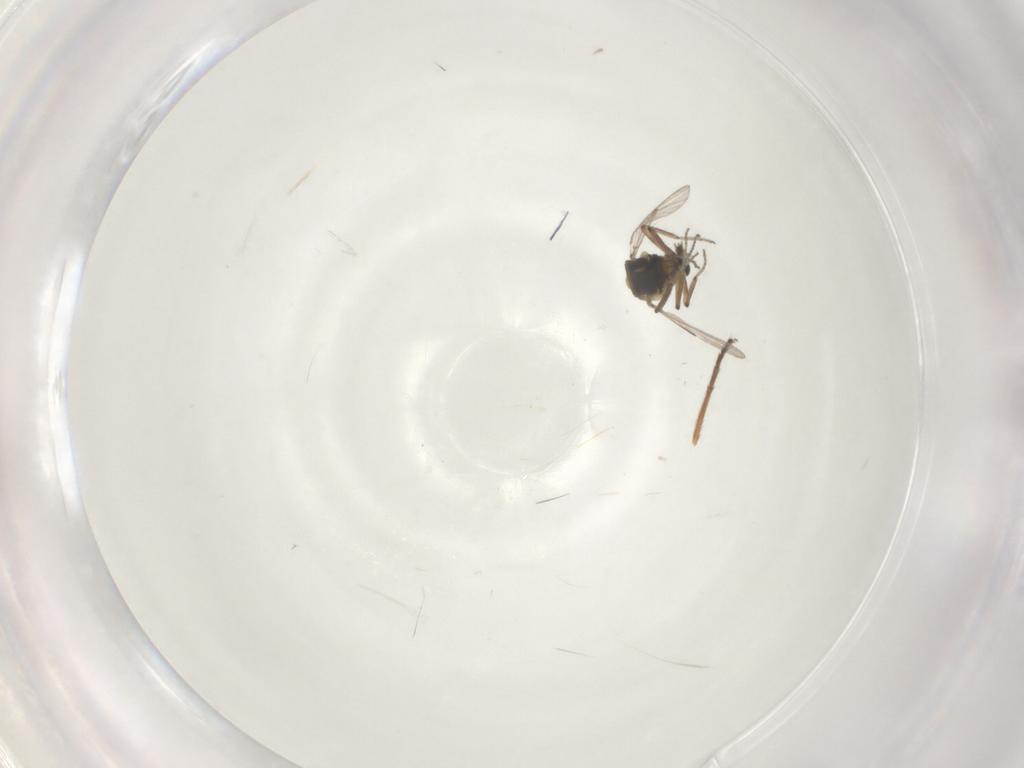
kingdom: Animalia
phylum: Arthropoda
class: Insecta
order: Diptera
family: Ceratopogonidae
